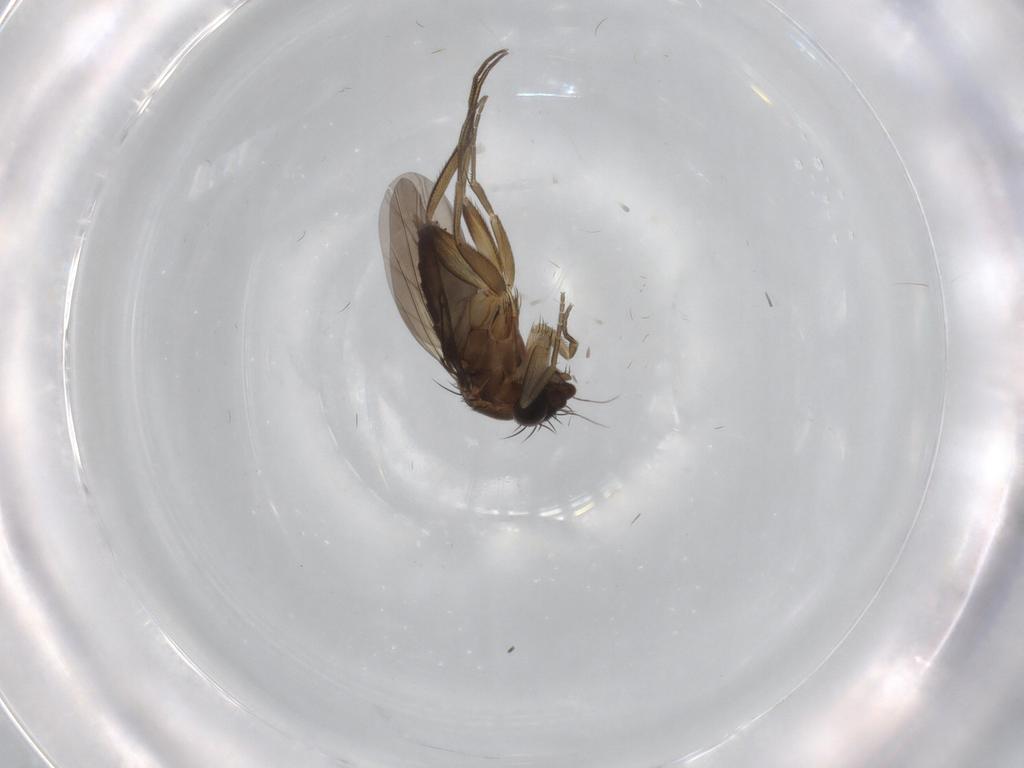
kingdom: Animalia
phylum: Arthropoda
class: Insecta
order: Diptera
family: Phoridae
